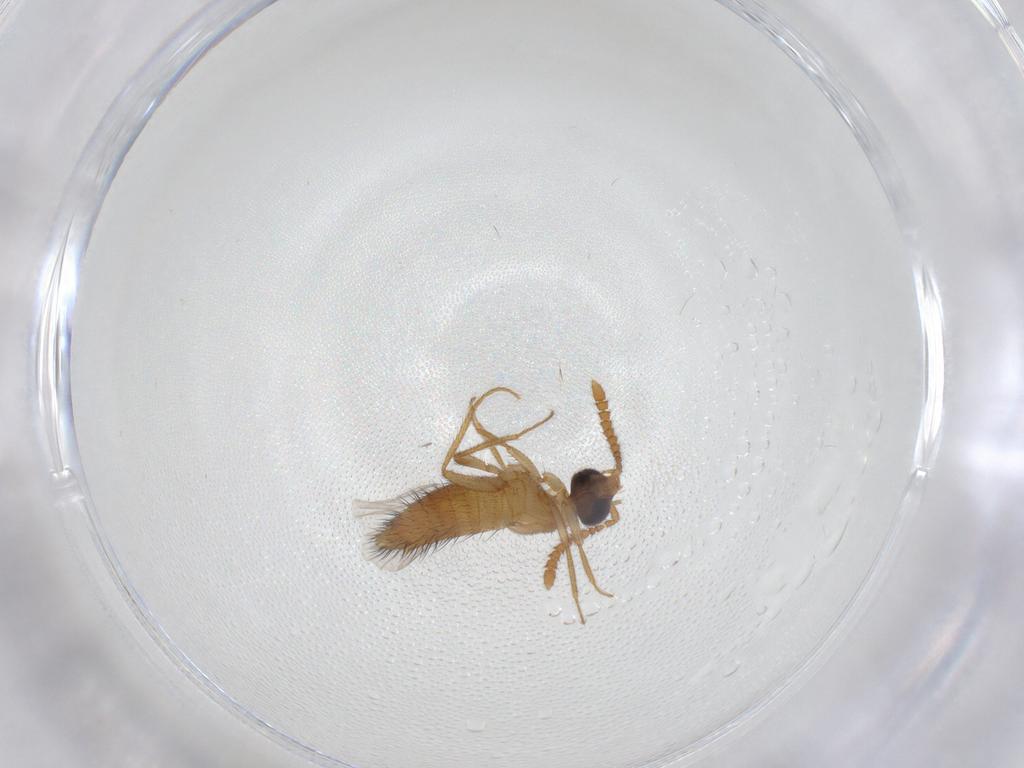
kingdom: Animalia
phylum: Arthropoda
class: Insecta
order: Coleoptera
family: Staphylinidae
